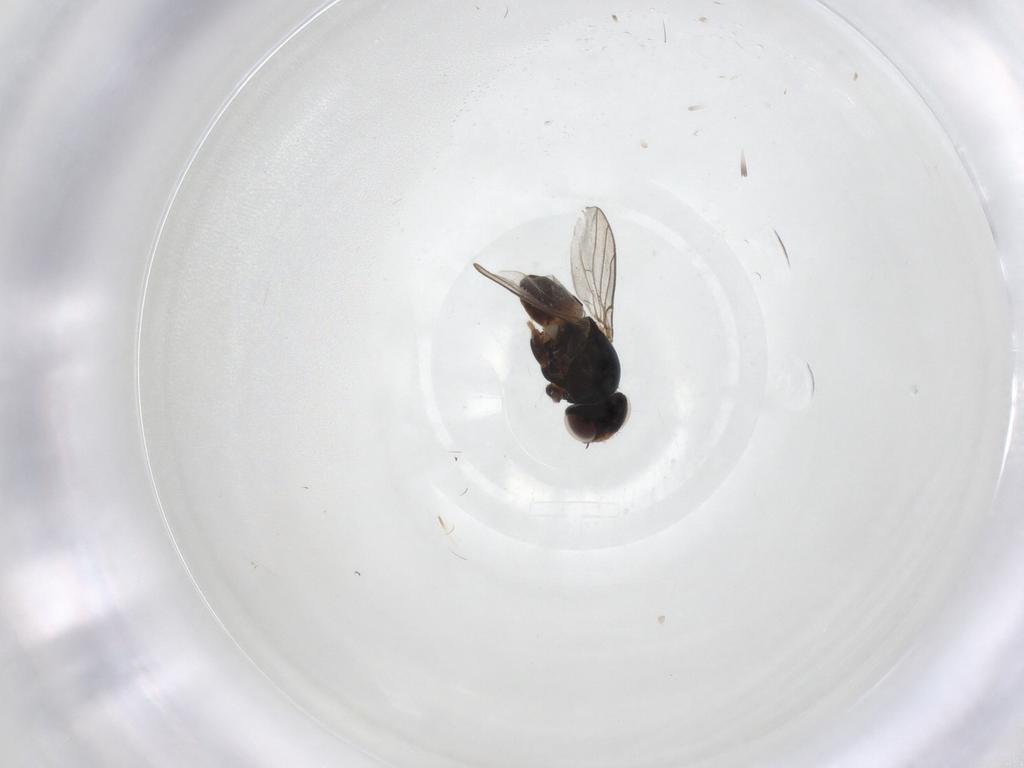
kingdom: Animalia
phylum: Arthropoda
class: Insecta
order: Diptera
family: Chloropidae
